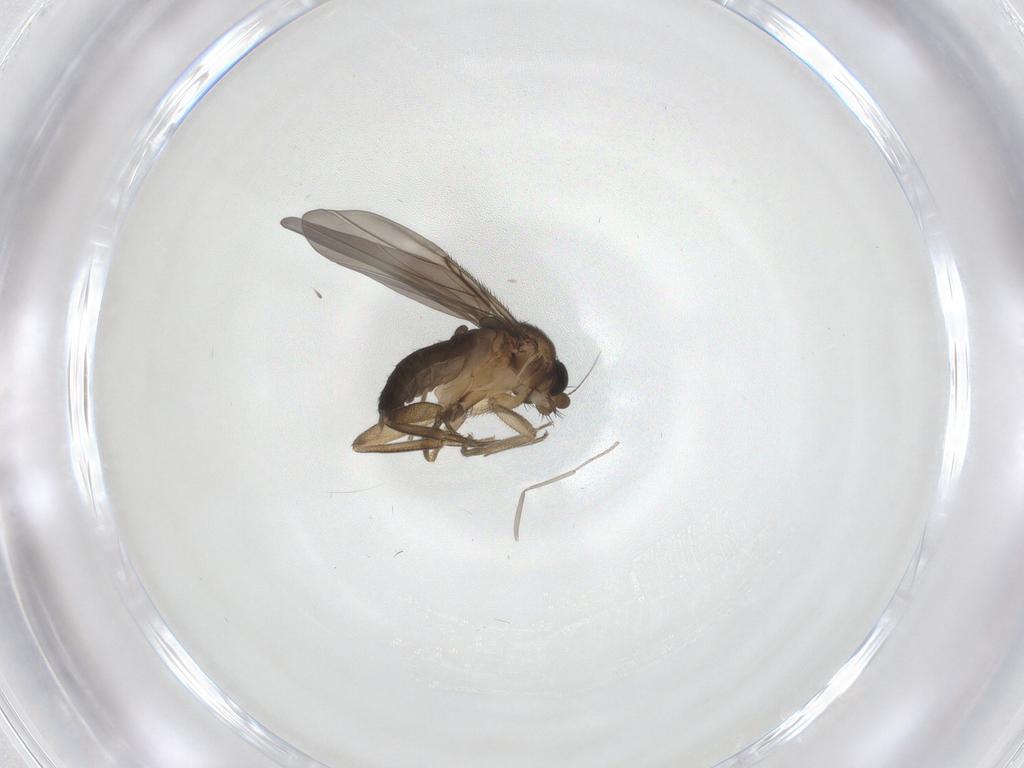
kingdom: Animalia
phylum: Arthropoda
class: Insecta
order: Diptera
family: Phoridae
